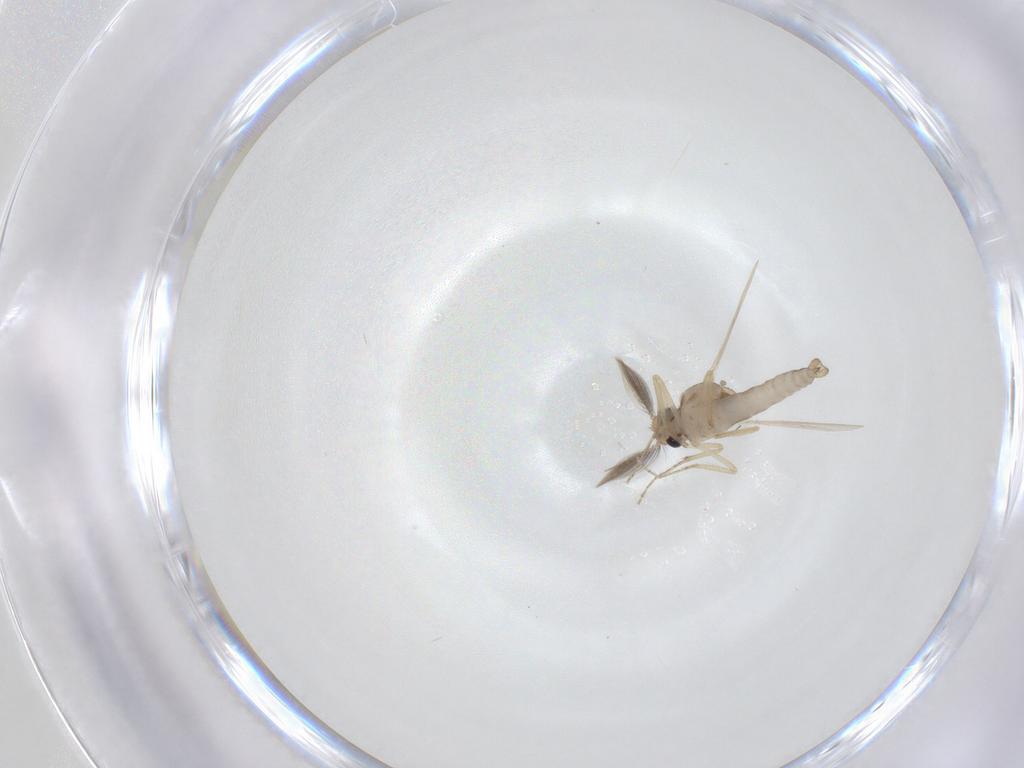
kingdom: Animalia
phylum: Arthropoda
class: Insecta
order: Diptera
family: Ceratopogonidae
